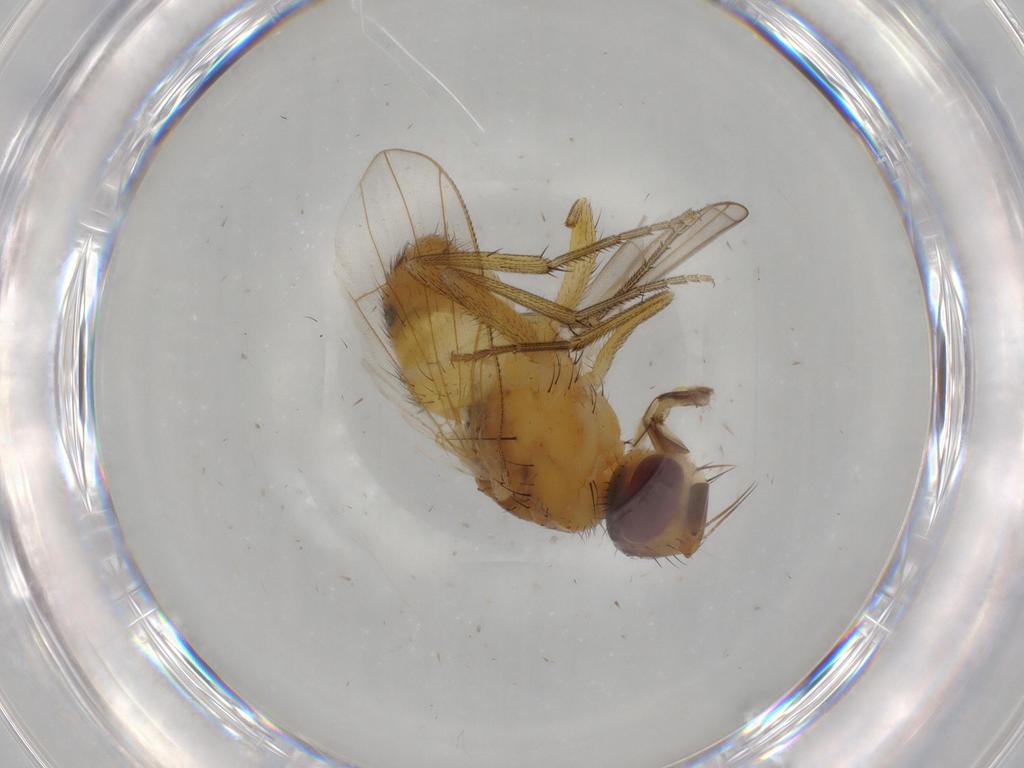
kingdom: Animalia
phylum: Arthropoda
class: Insecta
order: Diptera
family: Muscidae
